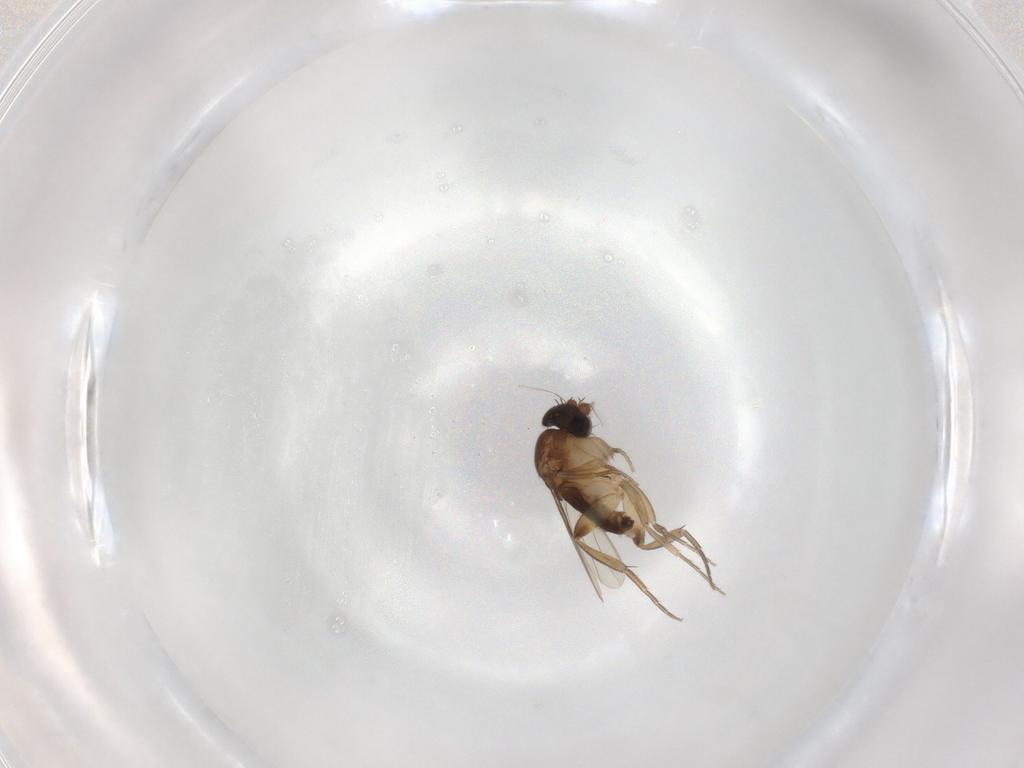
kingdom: Animalia
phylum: Arthropoda
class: Insecta
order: Diptera
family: Phoridae
